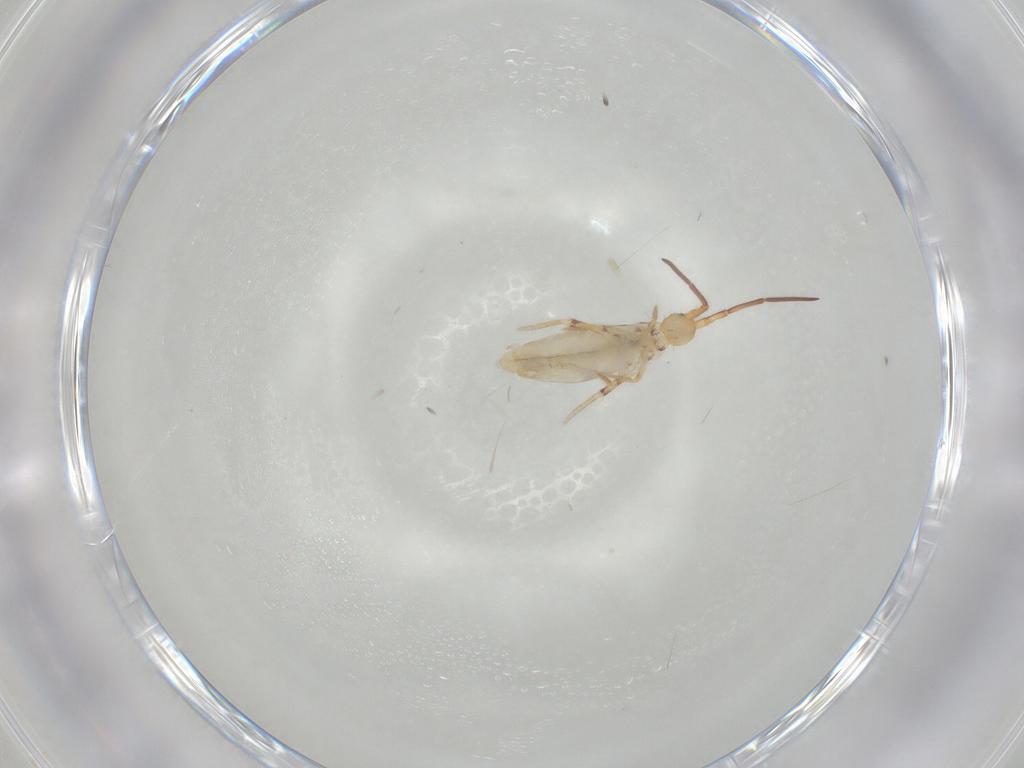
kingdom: Animalia
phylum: Arthropoda
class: Collembola
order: Poduromorpha
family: Hypogastruridae
